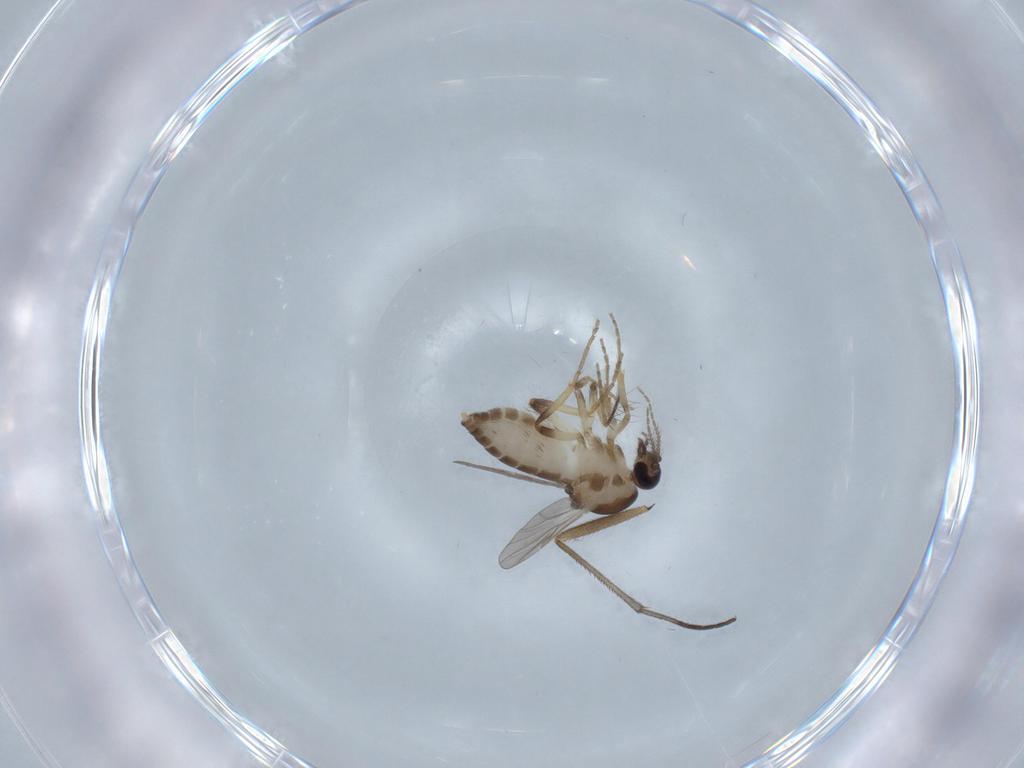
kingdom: Animalia
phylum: Arthropoda
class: Insecta
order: Diptera
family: Ceratopogonidae
